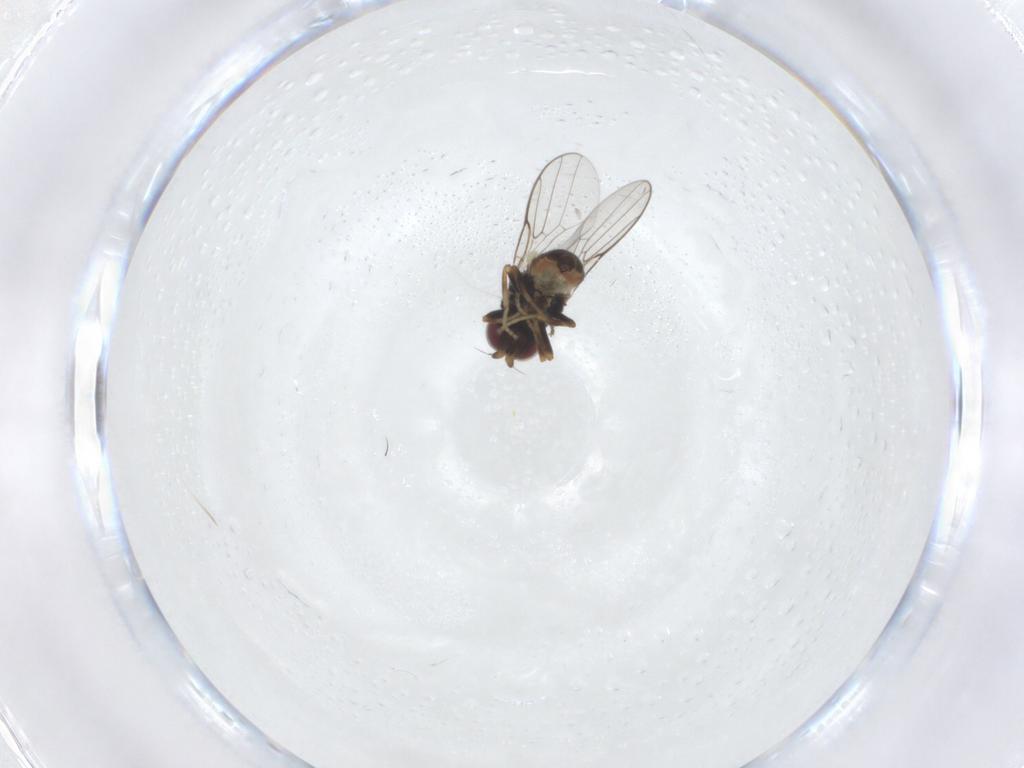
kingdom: Animalia
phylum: Arthropoda
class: Insecta
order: Diptera
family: Chloropidae
